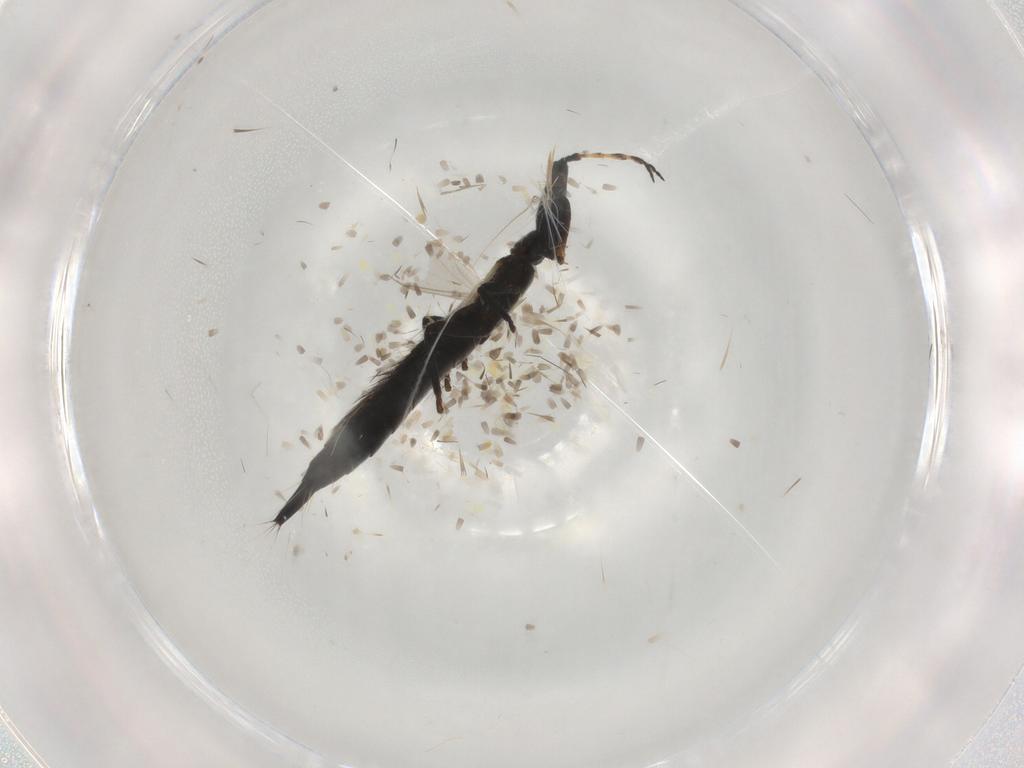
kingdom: Animalia
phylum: Arthropoda
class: Insecta
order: Thysanoptera
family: Phlaeothripidae
